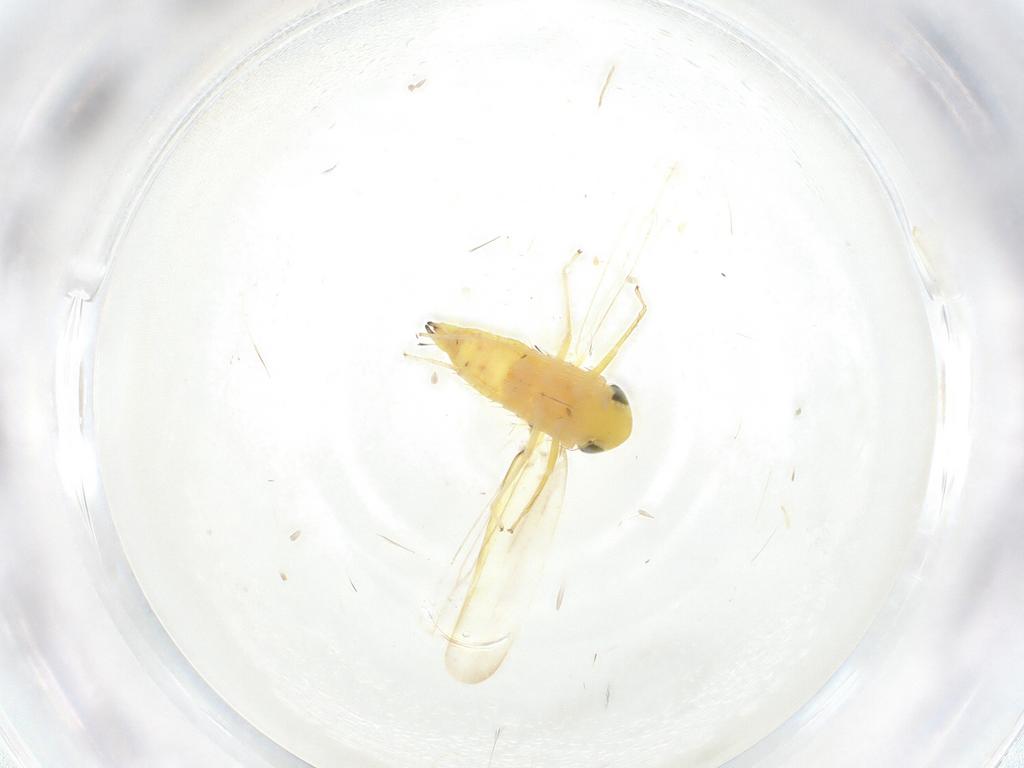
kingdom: Animalia
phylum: Arthropoda
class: Insecta
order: Hemiptera
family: Cicadellidae
